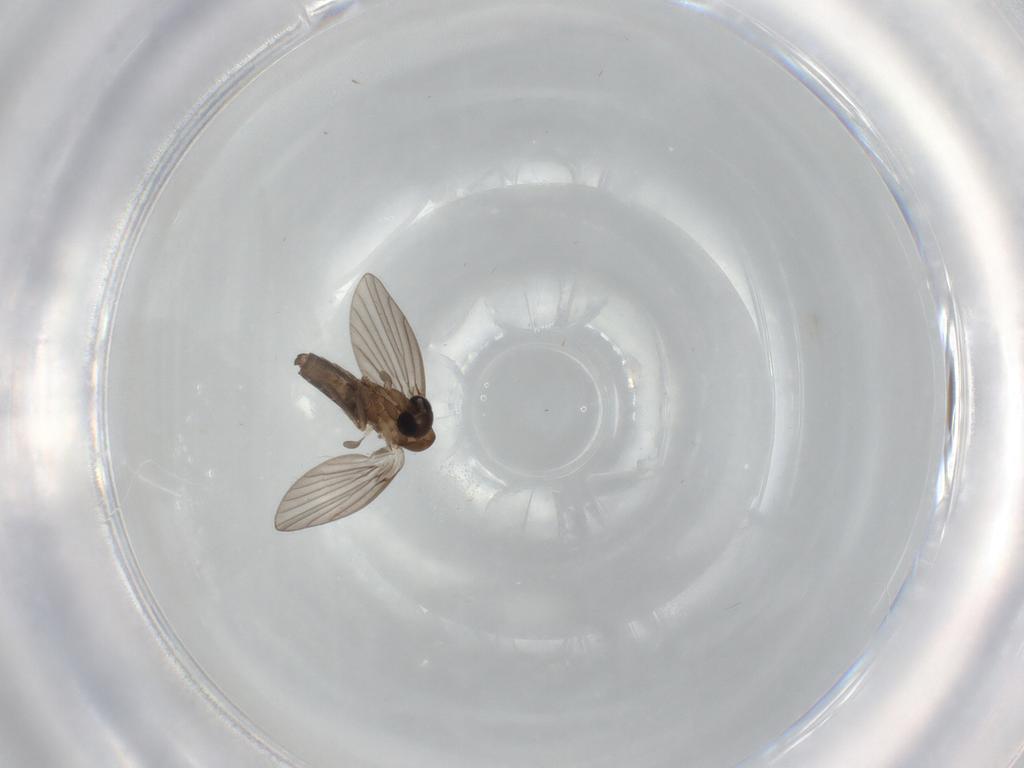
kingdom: Animalia
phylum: Arthropoda
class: Insecta
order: Diptera
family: Psychodidae
